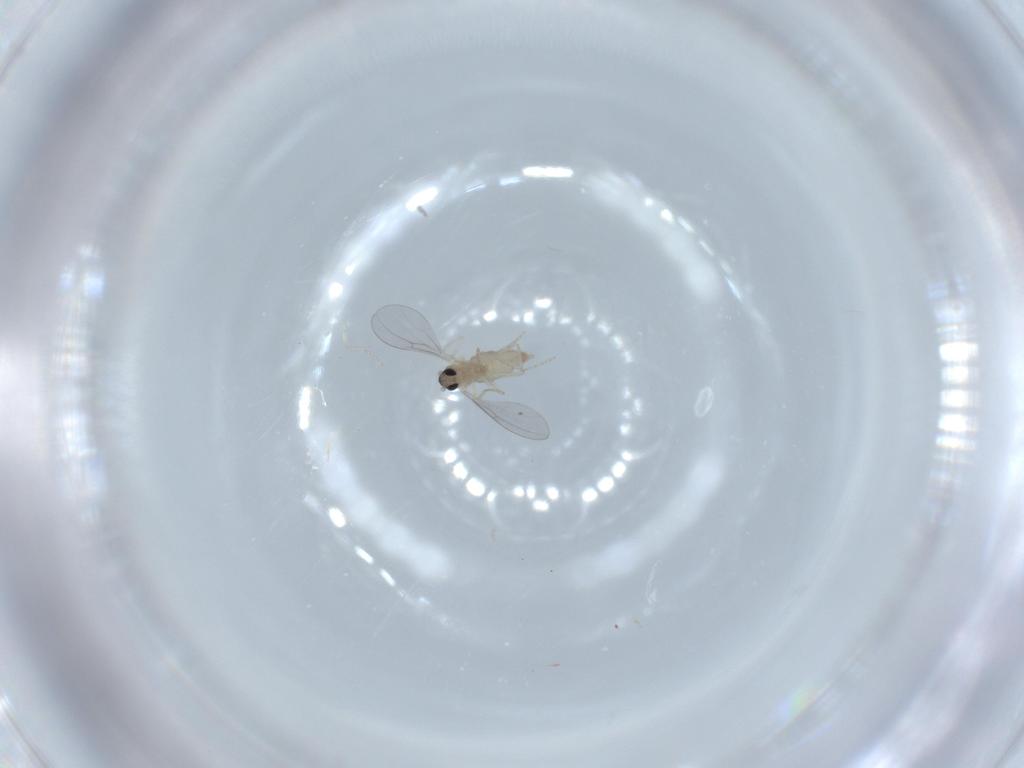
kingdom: Animalia
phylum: Arthropoda
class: Insecta
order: Diptera
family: Cecidomyiidae
